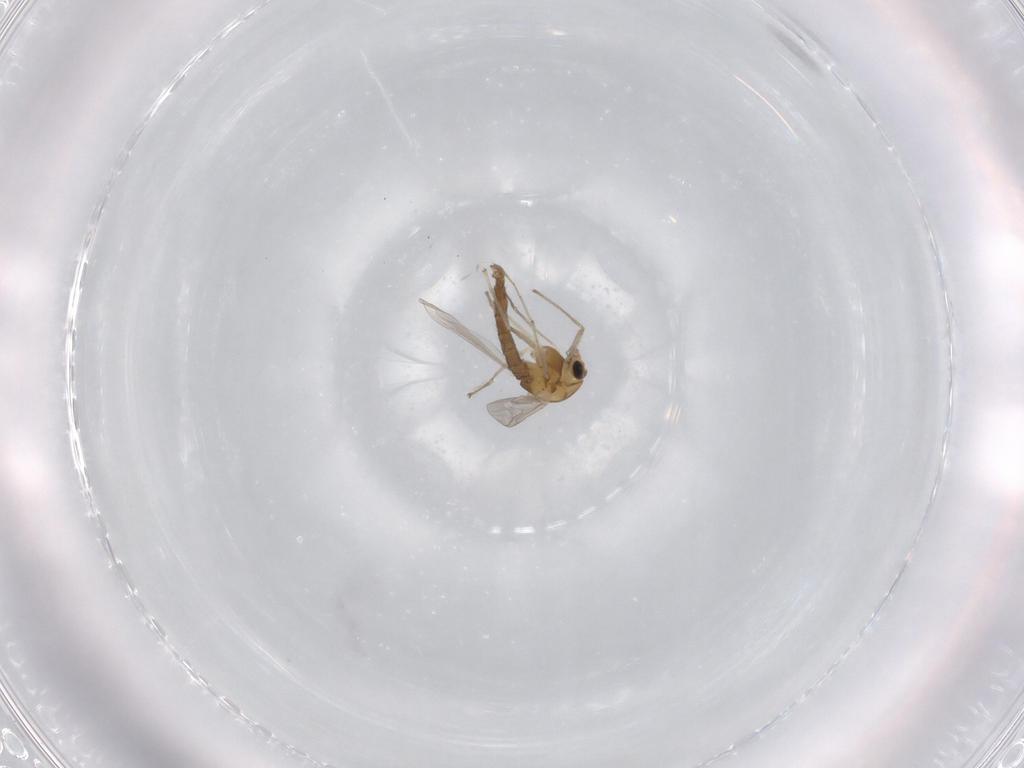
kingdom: Animalia
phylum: Arthropoda
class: Insecta
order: Diptera
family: Chironomidae
